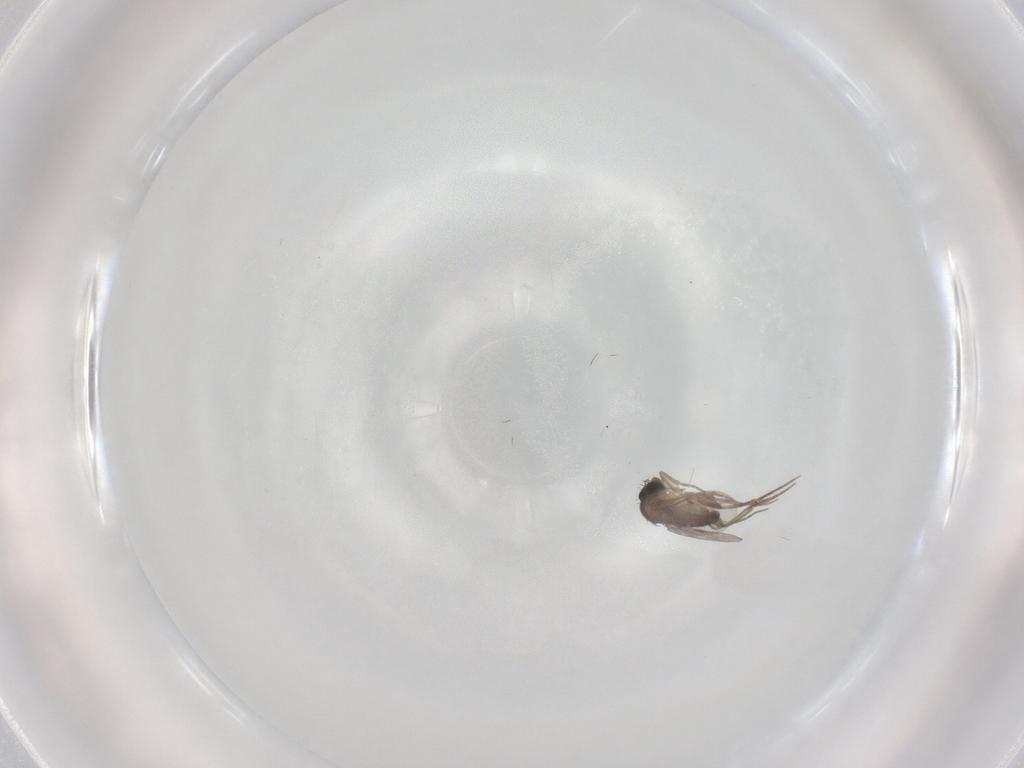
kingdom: Animalia
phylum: Arthropoda
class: Insecta
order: Diptera
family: Phoridae
